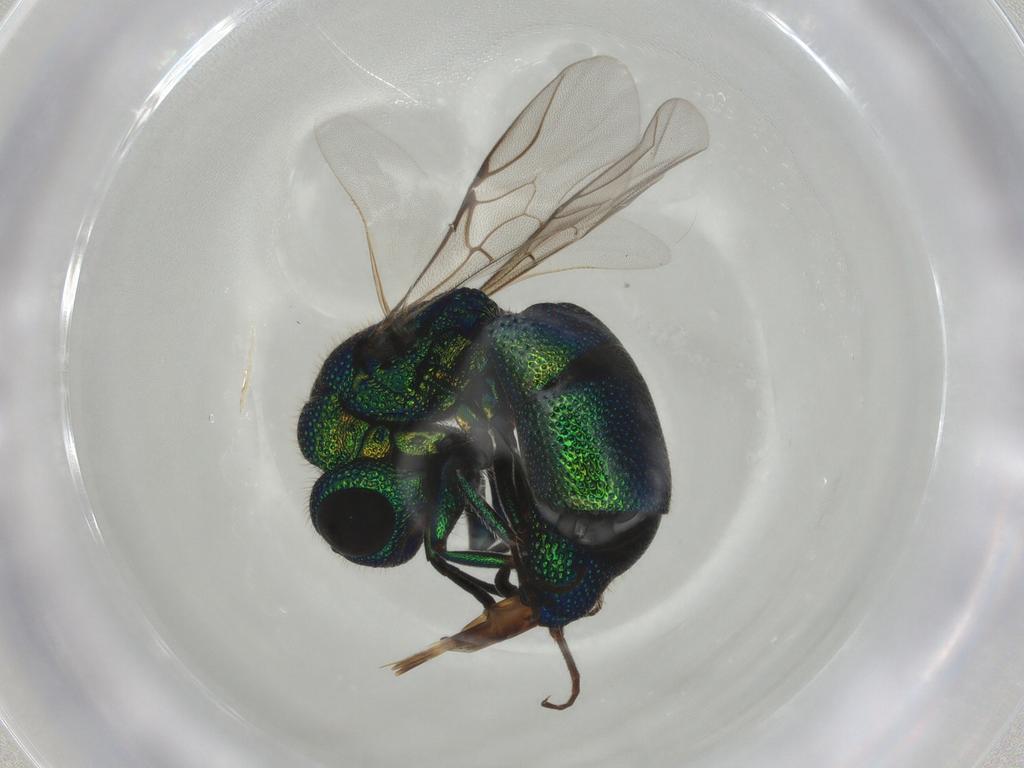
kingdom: Animalia
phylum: Arthropoda
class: Insecta
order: Hymenoptera
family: Chrysididae
